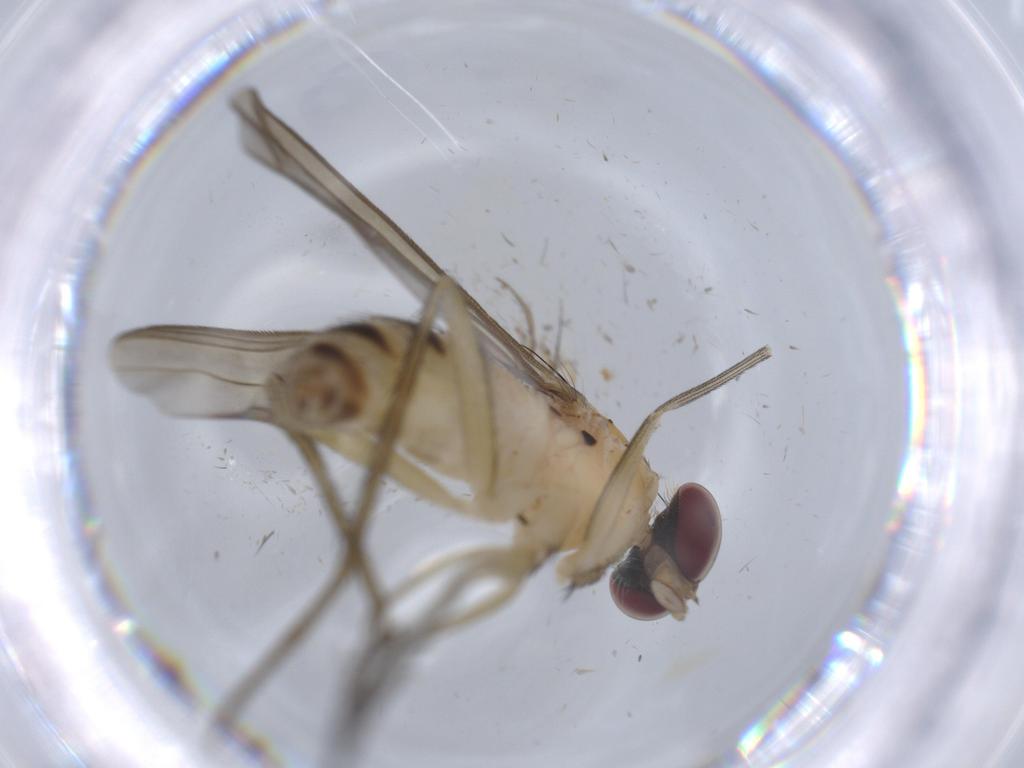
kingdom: Animalia
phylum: Arthropoda
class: Insecta
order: Diptera
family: Dolichopodidae
